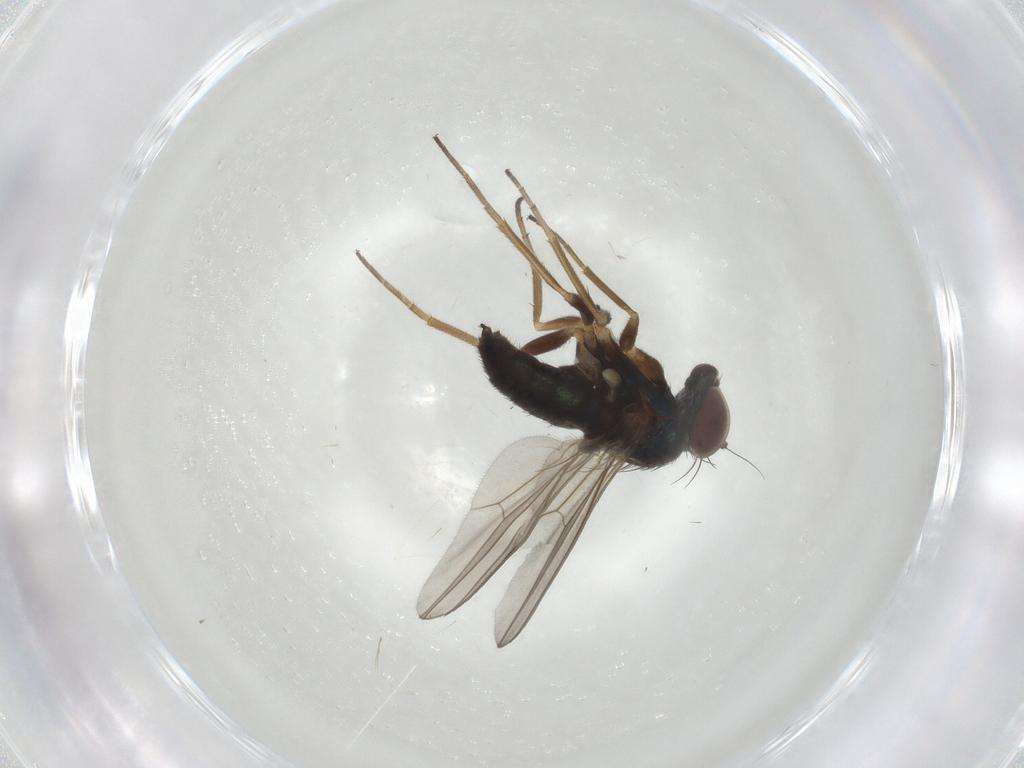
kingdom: Animalia
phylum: Arthropoda
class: Insecta
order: Diptera
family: Dolichopodidae
